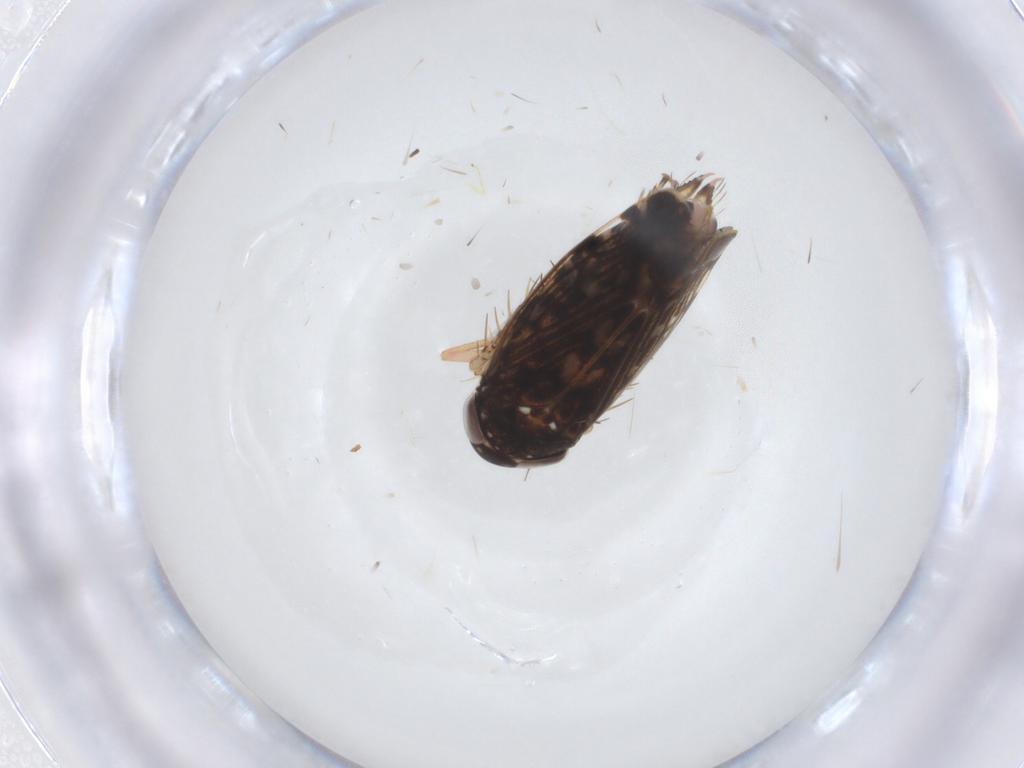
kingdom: Animalia
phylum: Arthropoda
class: Insecta
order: Hemiptera
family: Cicadellidae
